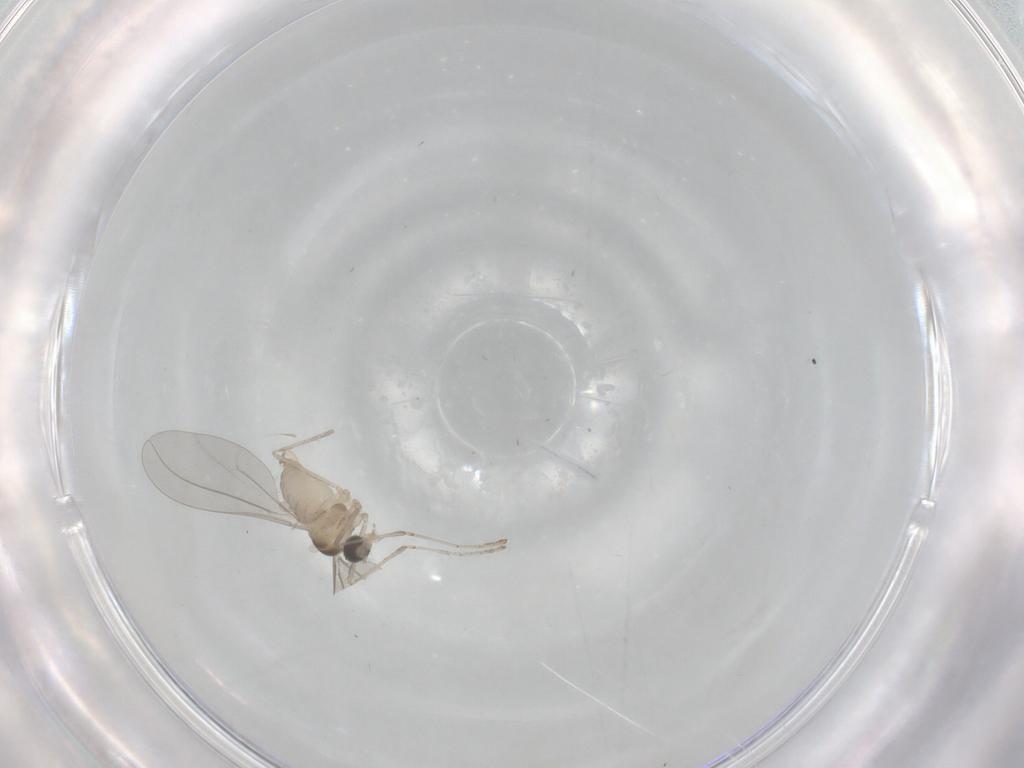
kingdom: Animalia
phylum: Arthropoda
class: Insecta
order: Diptera
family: Cecidomyiidae
